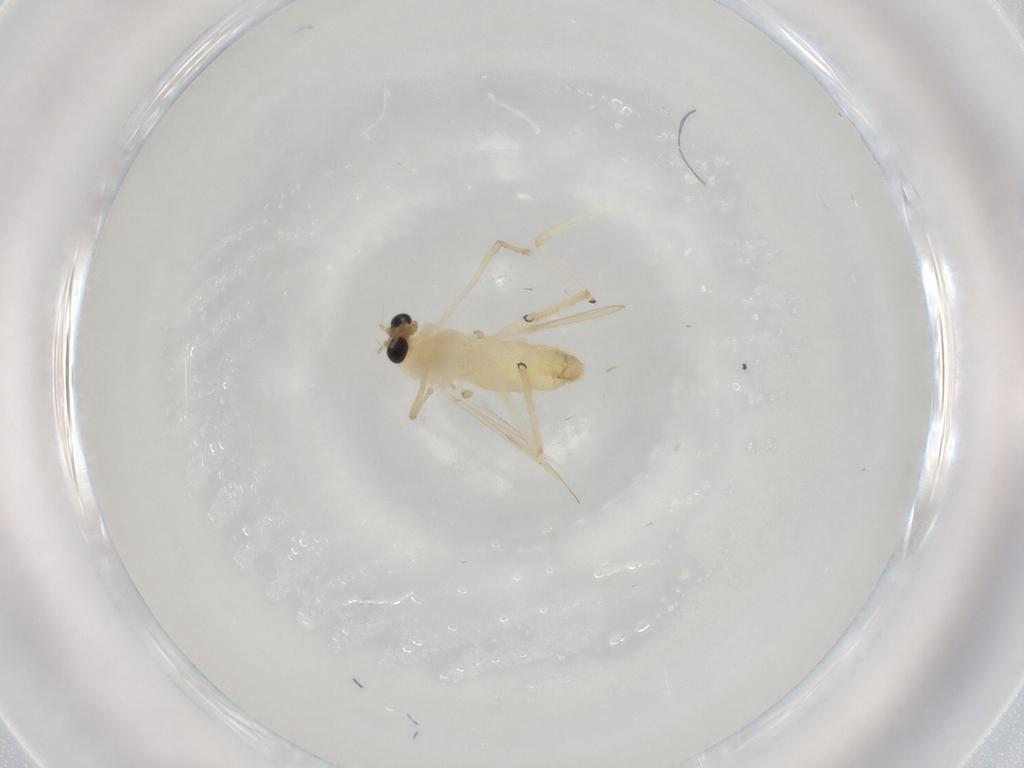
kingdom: Animalia
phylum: Arthropoda
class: Insecta
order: Diptera
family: Chironomidae
